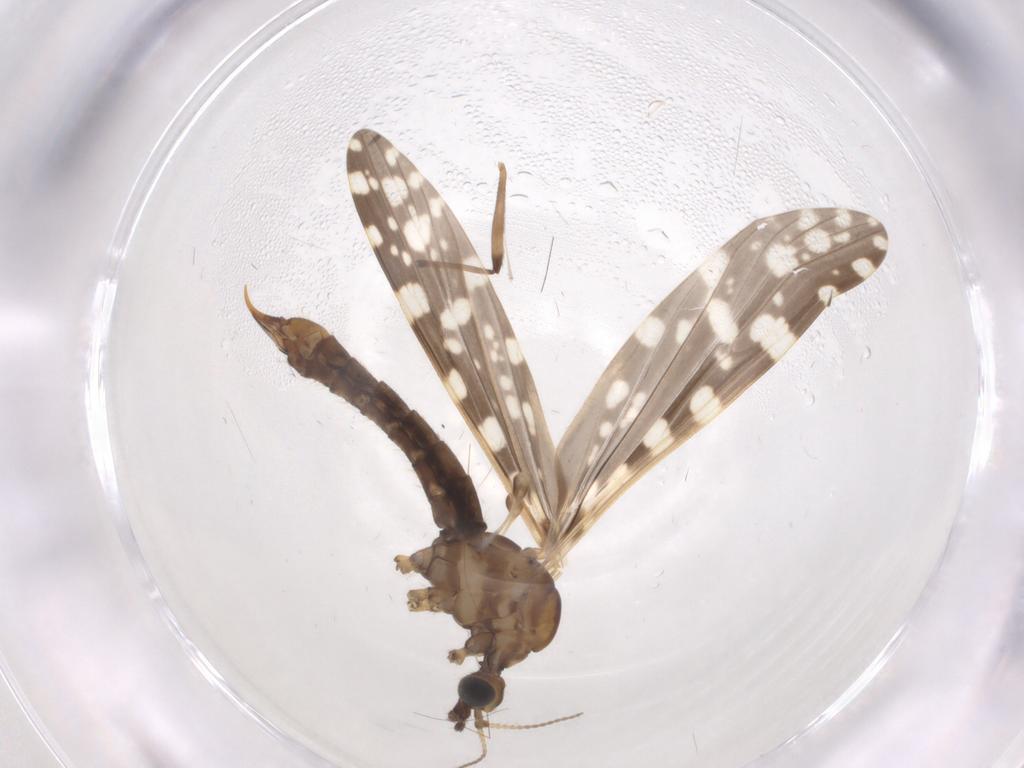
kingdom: Animalia
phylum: Arthropoda
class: Insecta
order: Diptera
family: Limoniidae
